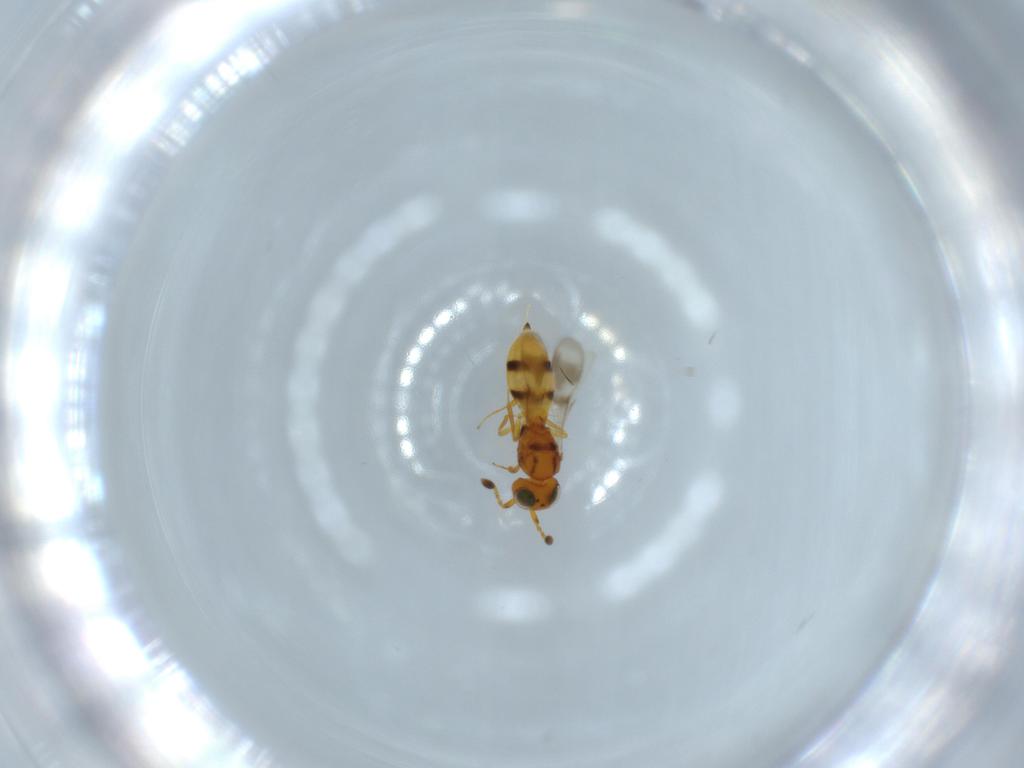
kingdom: Animalia
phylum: Arthropoda
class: Insecta
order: Hymenoptera
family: Scelionidae
